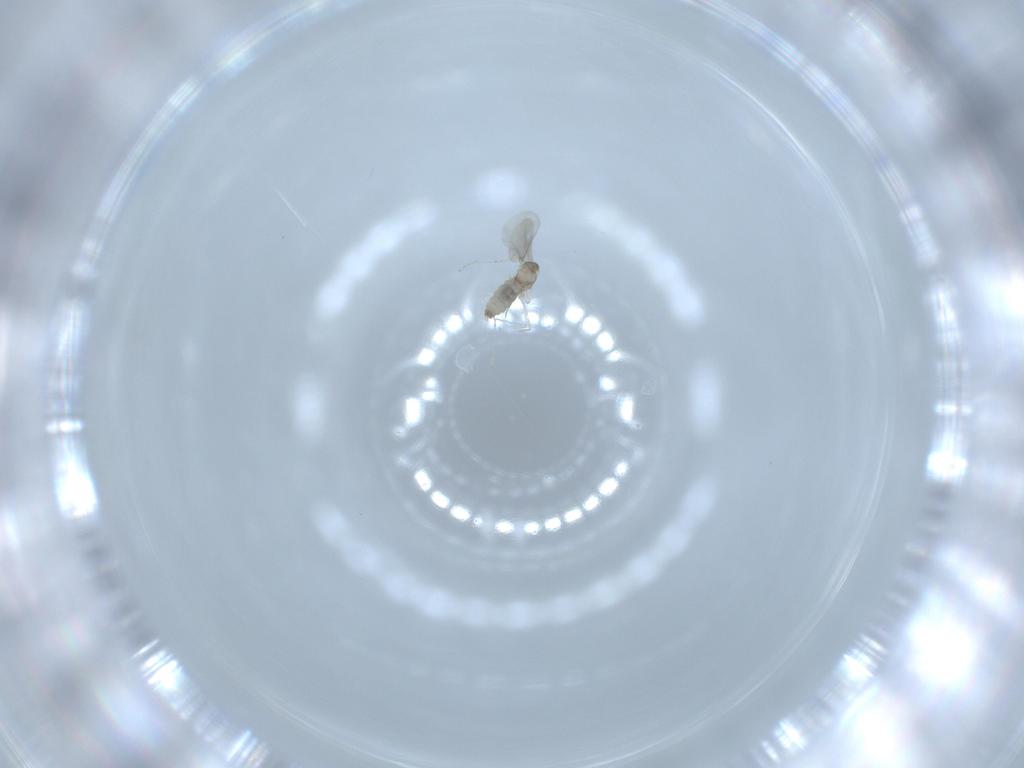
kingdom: Animalia
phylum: Arthropoda
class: Insecta
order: Diptera
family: Cecidomyiidae
